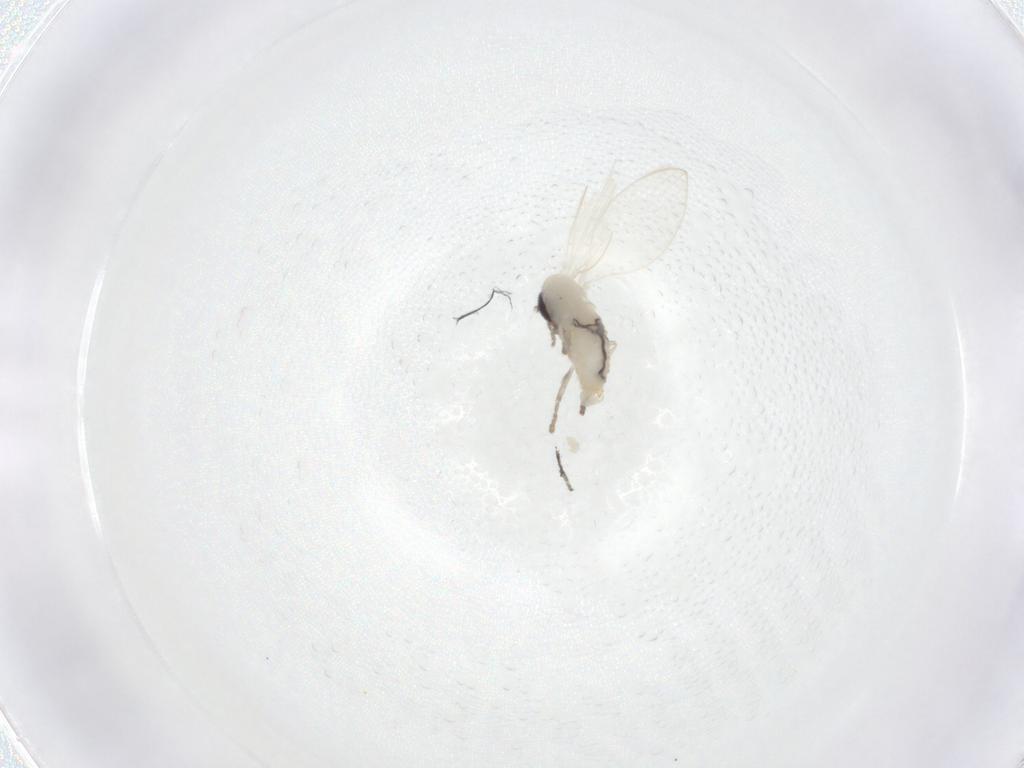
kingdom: Animalia
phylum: Arthropoda
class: Insecta
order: Diptera
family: Psychodidae
